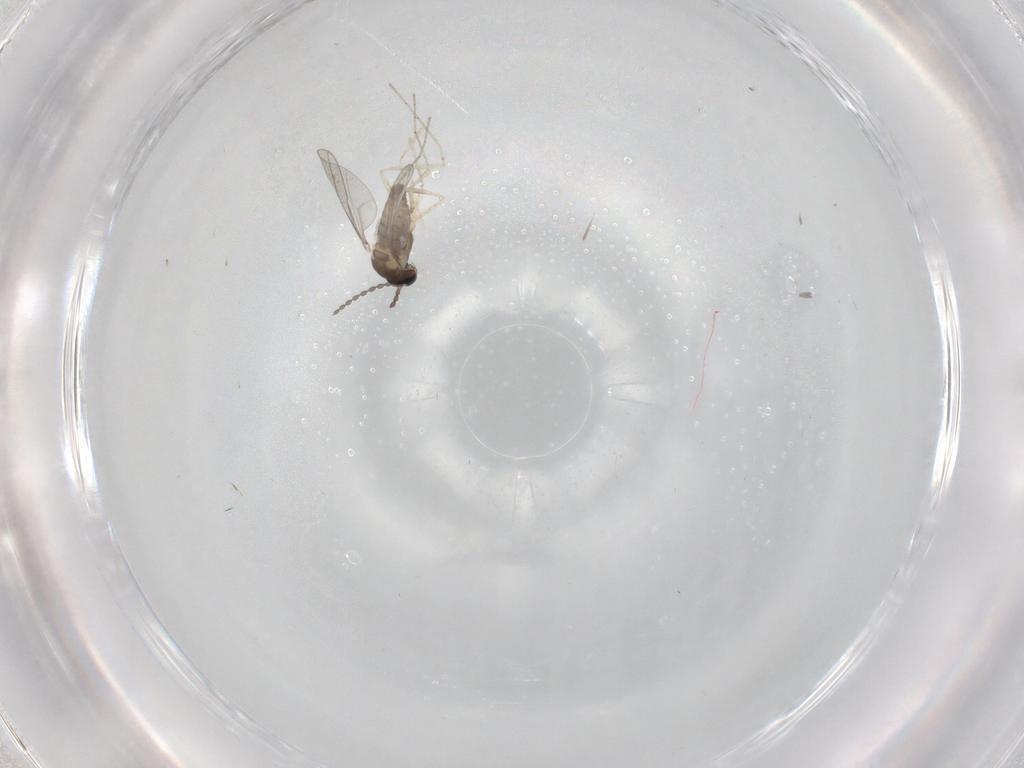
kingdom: Animalia
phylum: Arthropoda
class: Insecta
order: Diptera
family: Cecidomyiidae
